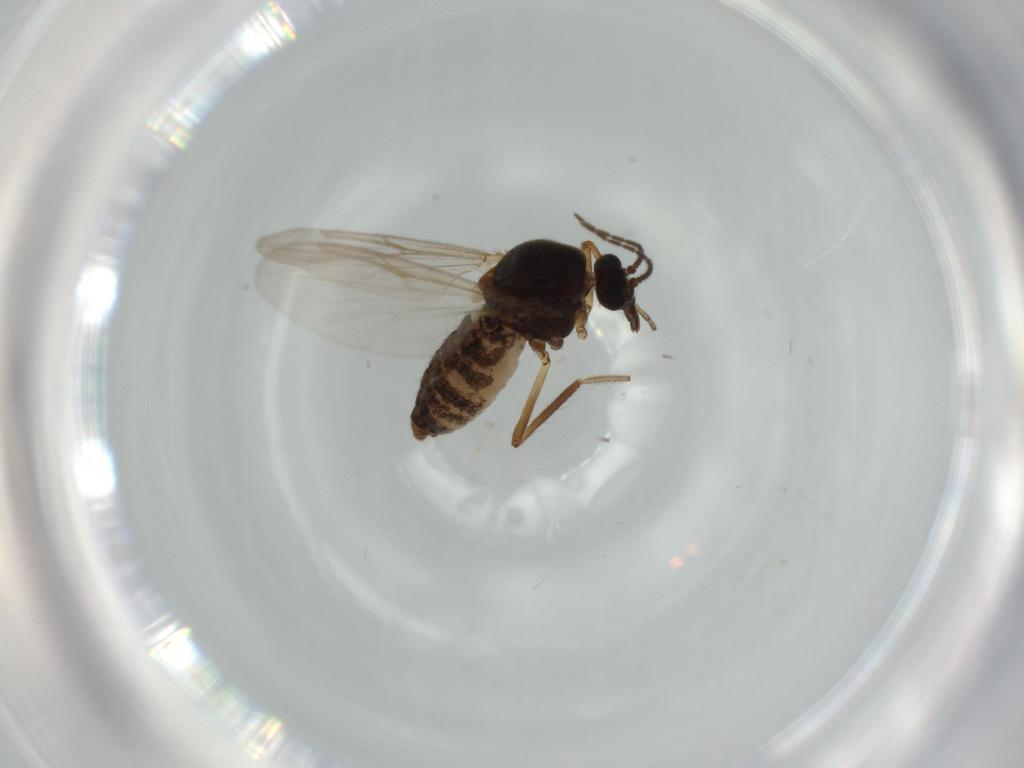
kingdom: Animalia
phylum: Arthropoda
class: Insecta
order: Diptera
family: Ceratopogonidae
